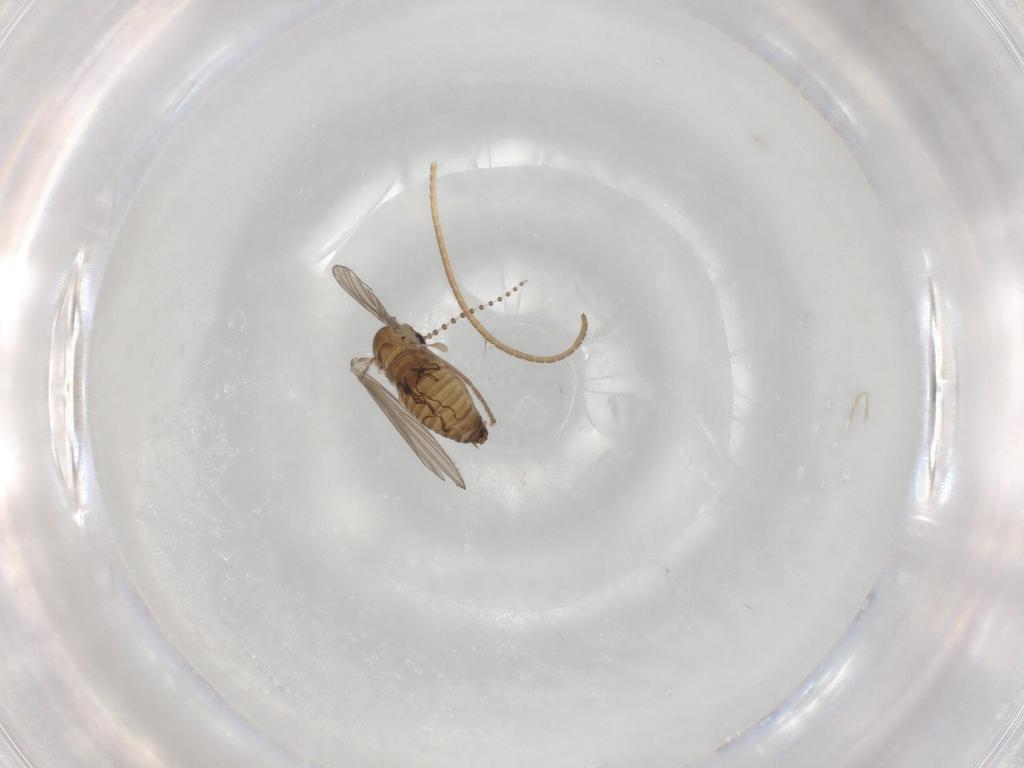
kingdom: Animalia
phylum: Arthropoda
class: Insecta
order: Diptera
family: Psychodidae
